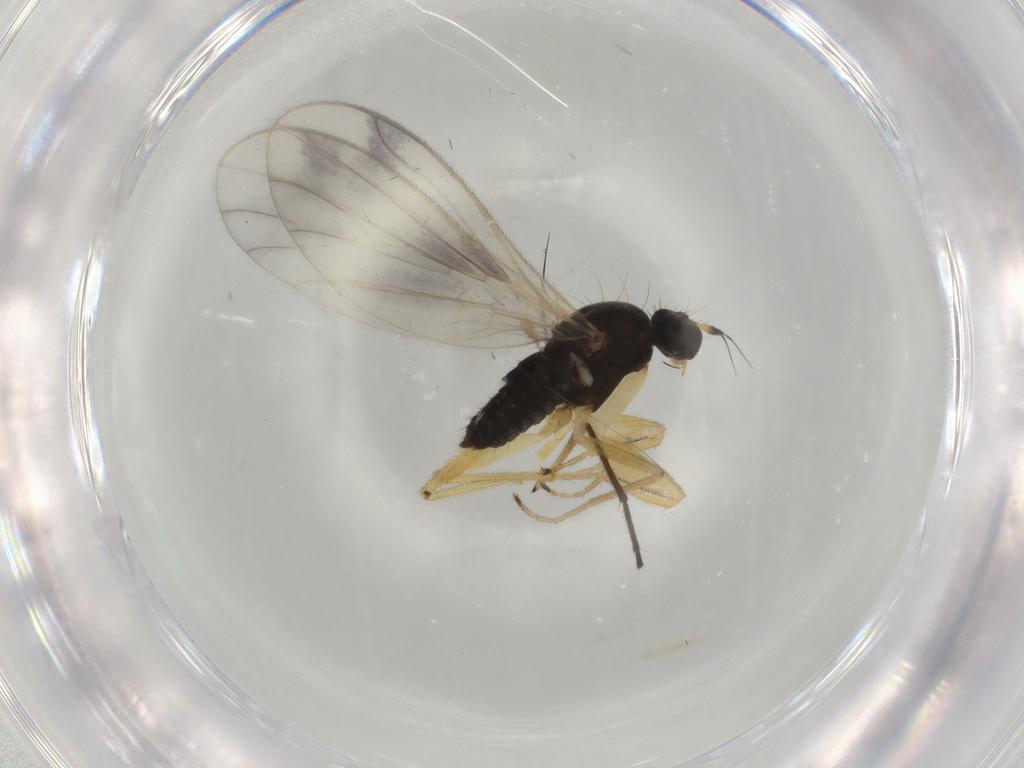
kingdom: Animalia
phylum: Arthropoda
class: Insecta
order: Diptera
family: Empididae
